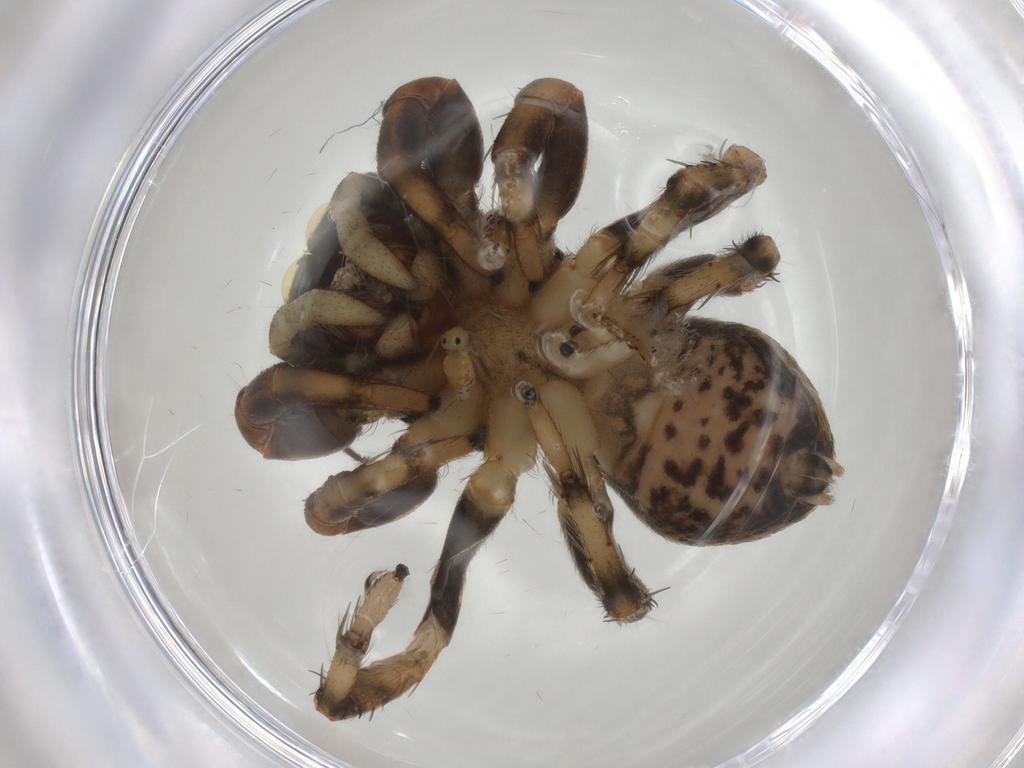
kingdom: Animalia
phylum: Arthropoda
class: Arachnida
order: Araneae
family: Salticidae
